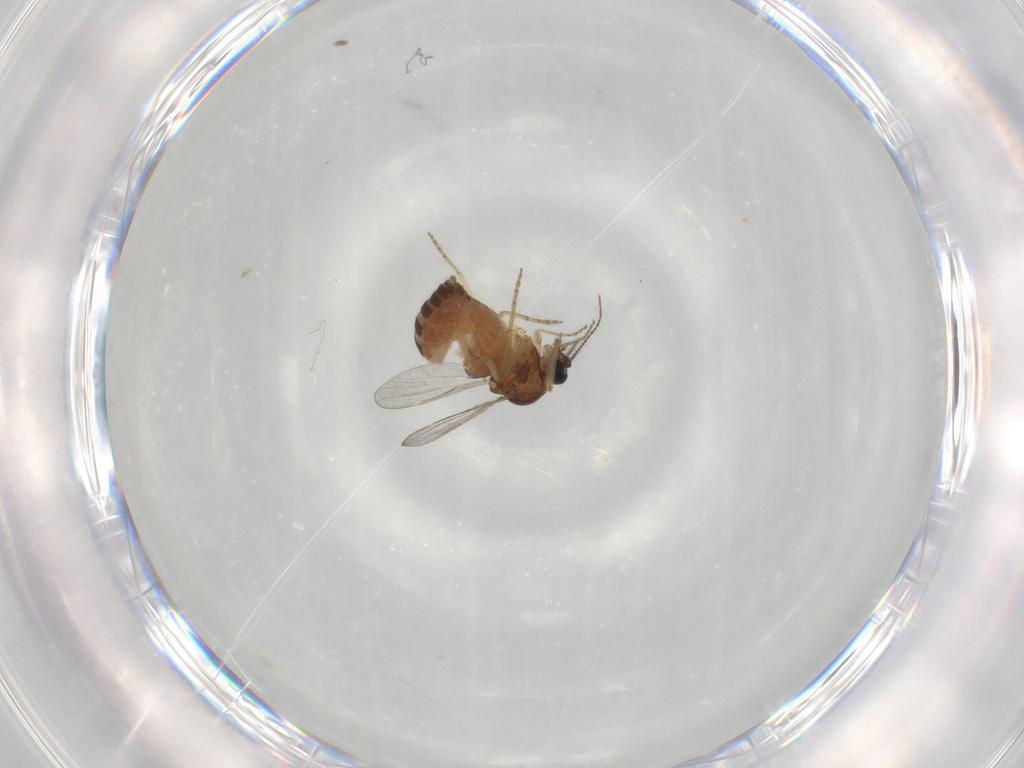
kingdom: Animalia
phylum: Arthropoda
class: Insecta
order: Diptera
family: Ceratopogonidae
